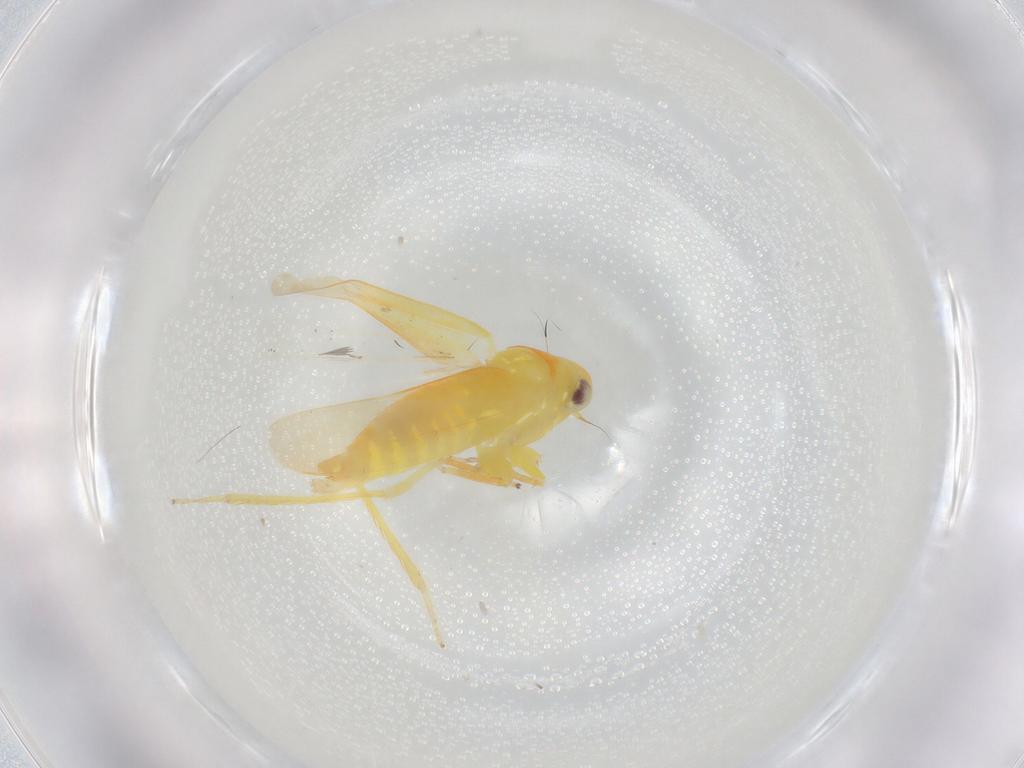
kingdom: Animalia
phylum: Arthropoda
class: Insecta
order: Hemiptera
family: Cicadellidae
